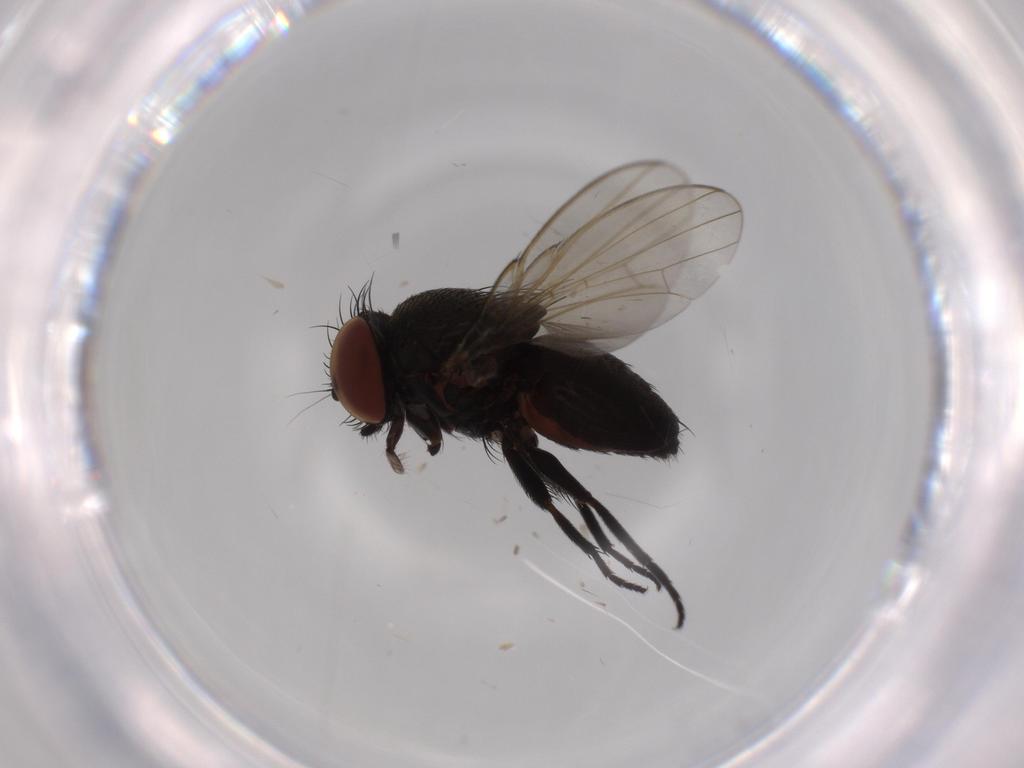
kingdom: Animalia
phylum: Arthropoda
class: Insecta
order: Diptera
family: Milichiidae
